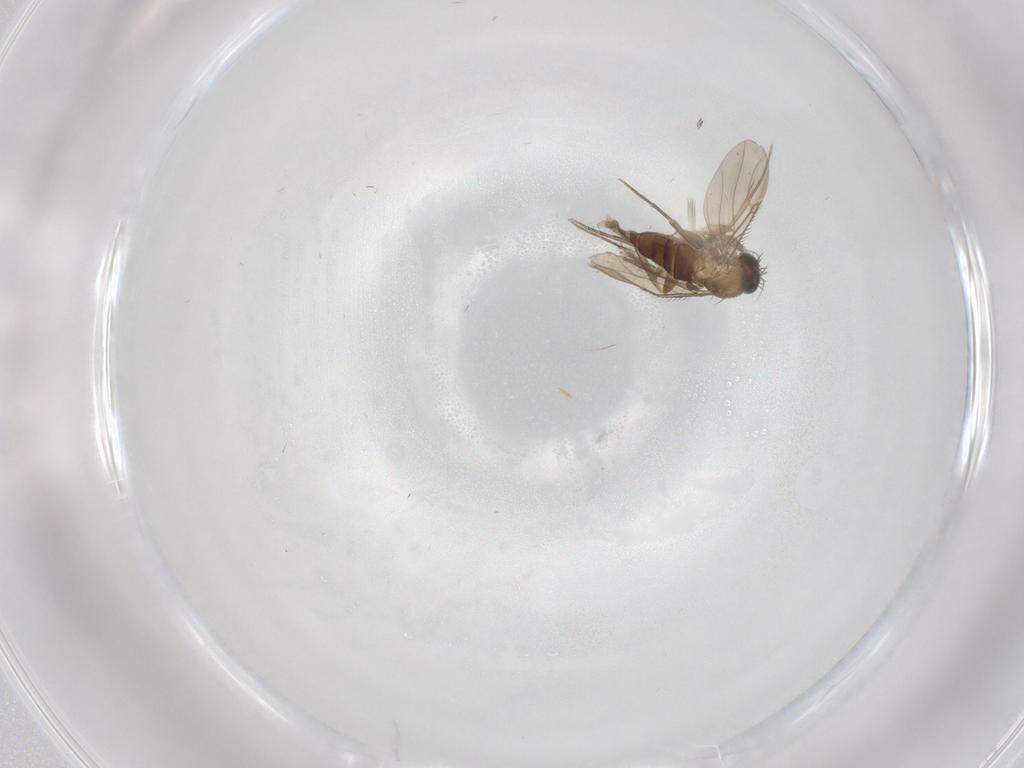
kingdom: Animalia
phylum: Arthropoda
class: Insecta
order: Diptera
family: Phoridae
